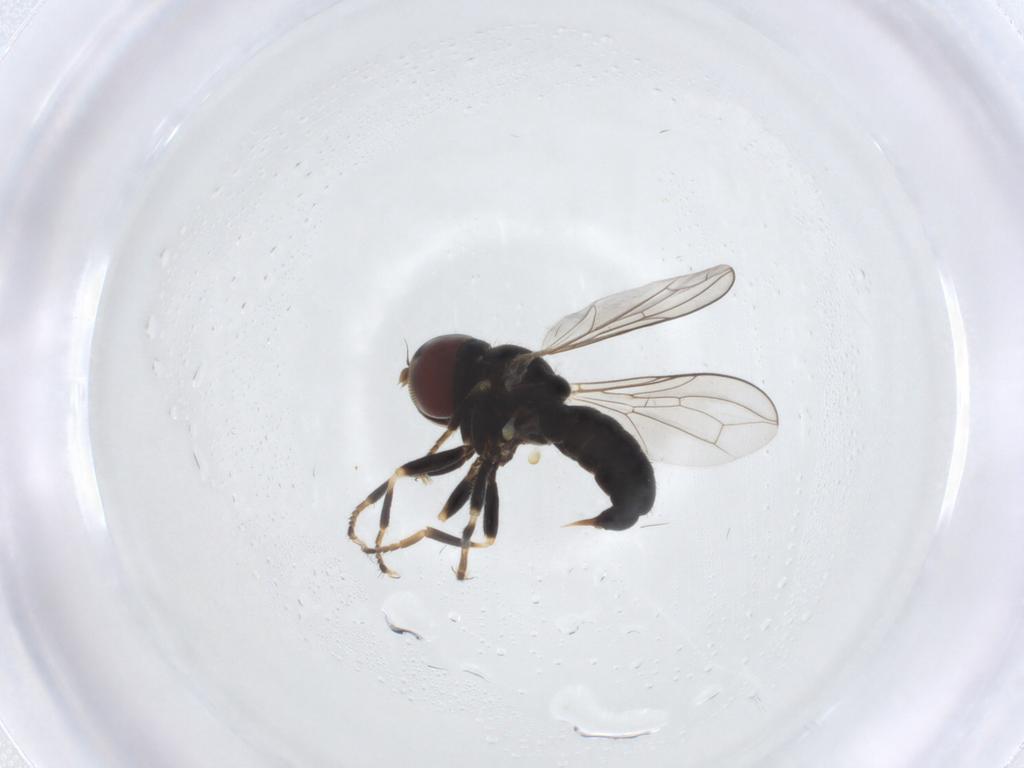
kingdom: Animalia
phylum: Arthropoda
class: Insecta
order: Diptera
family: Pipunculidae
